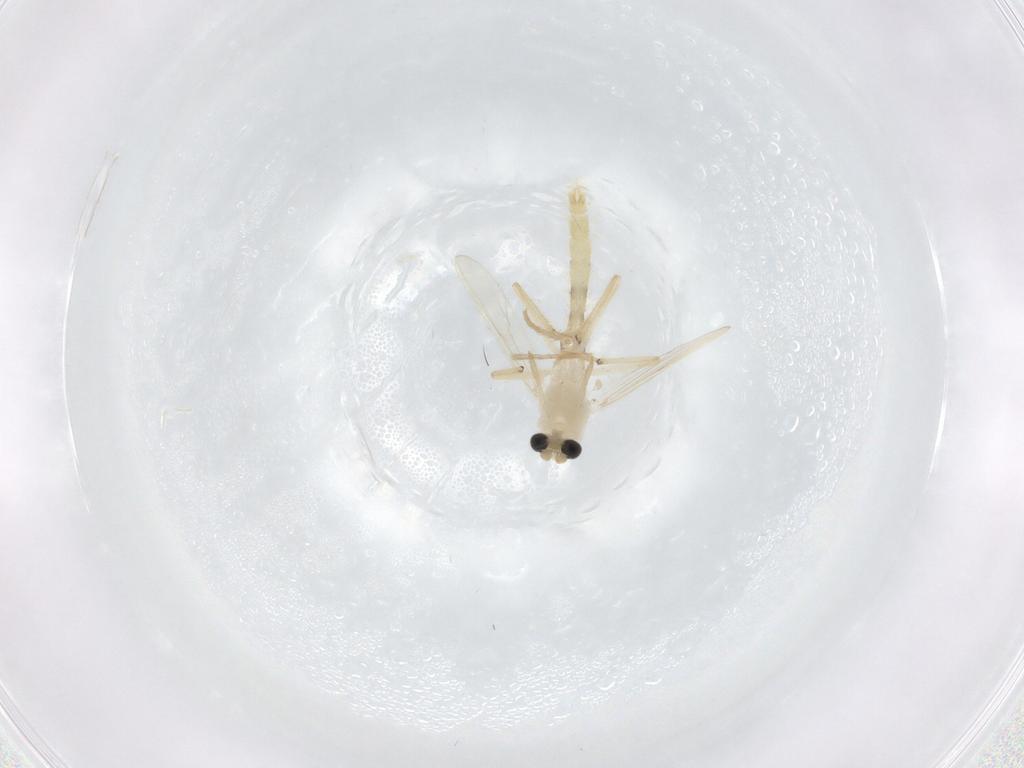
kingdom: Animalia
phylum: Arthropoda
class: Insecta
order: Diptera
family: Chironomidae
